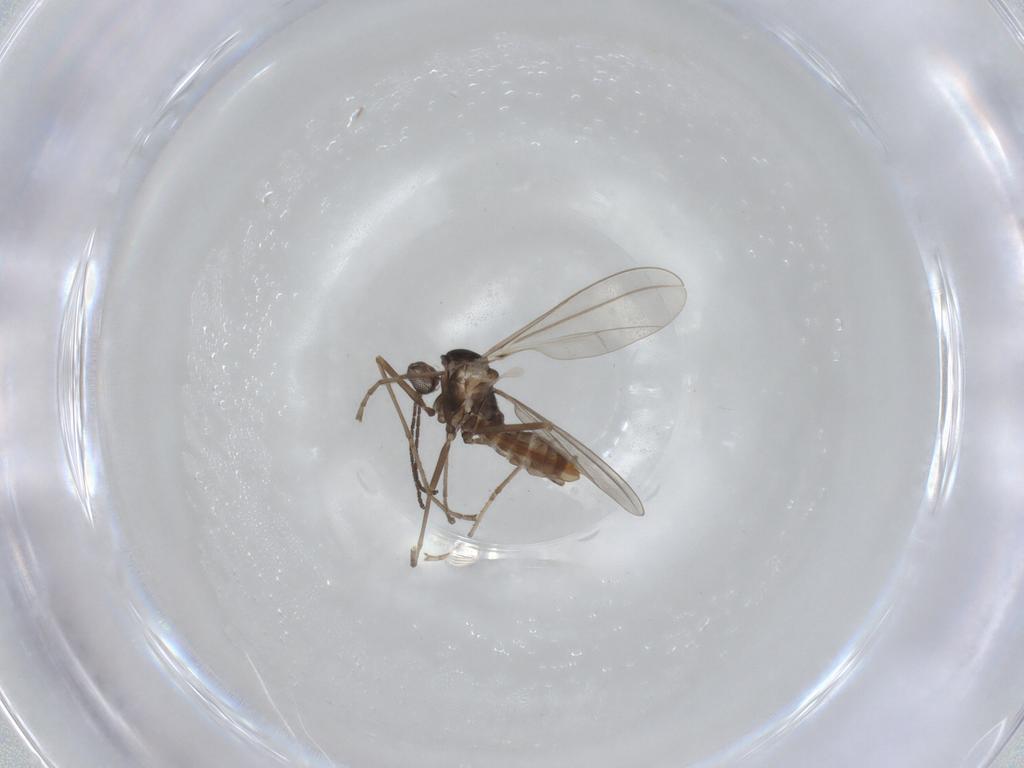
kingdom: Animalia
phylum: Arthropoda
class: Insecta
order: Diptera
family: Cecidomyiidae
